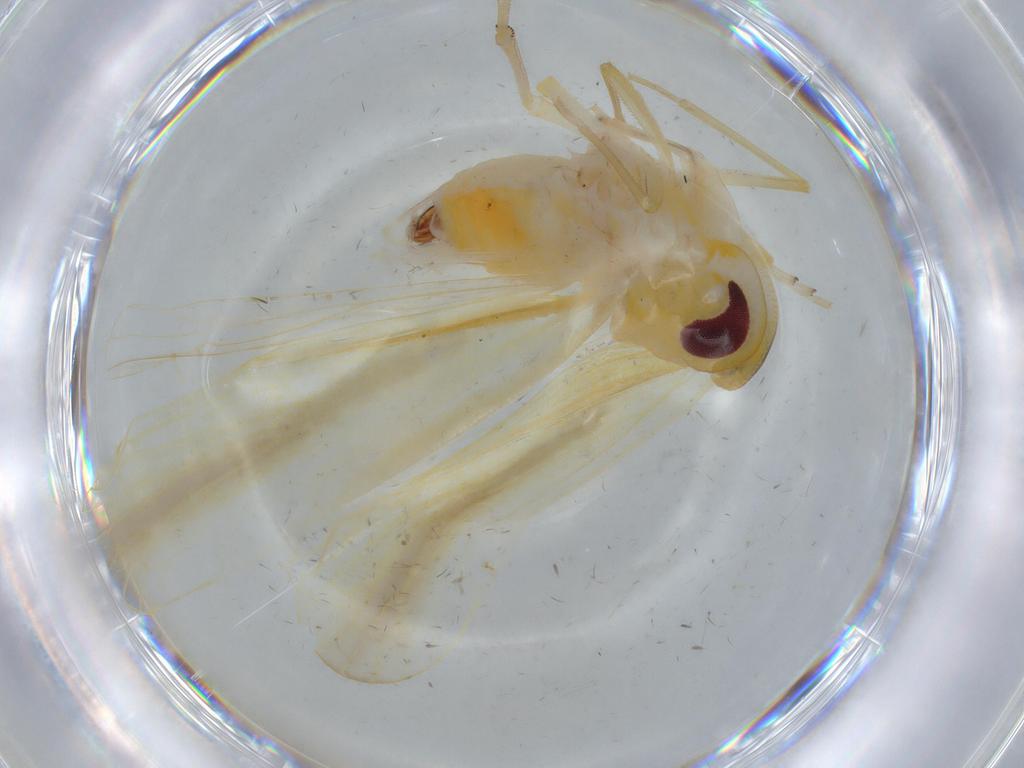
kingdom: Animalia
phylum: Arthropoda
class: Insecta
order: Hemiptera
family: Derbidae
